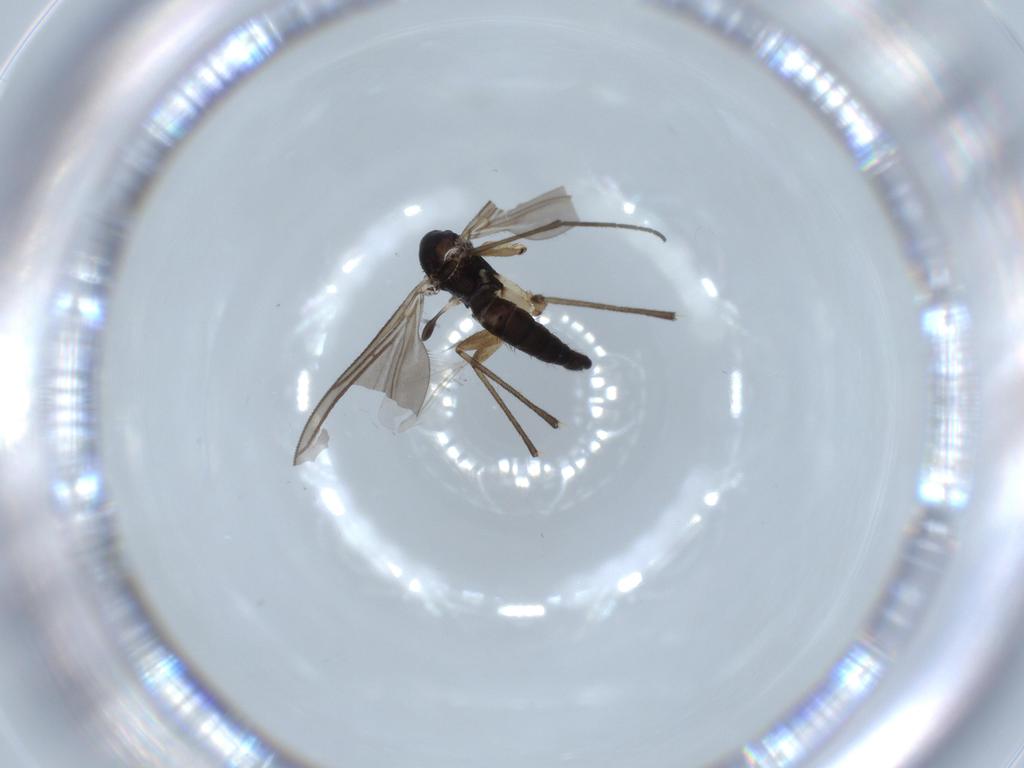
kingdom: Animalia
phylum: Arthropoda
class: Insecta
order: Diptera
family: Sciaridae
